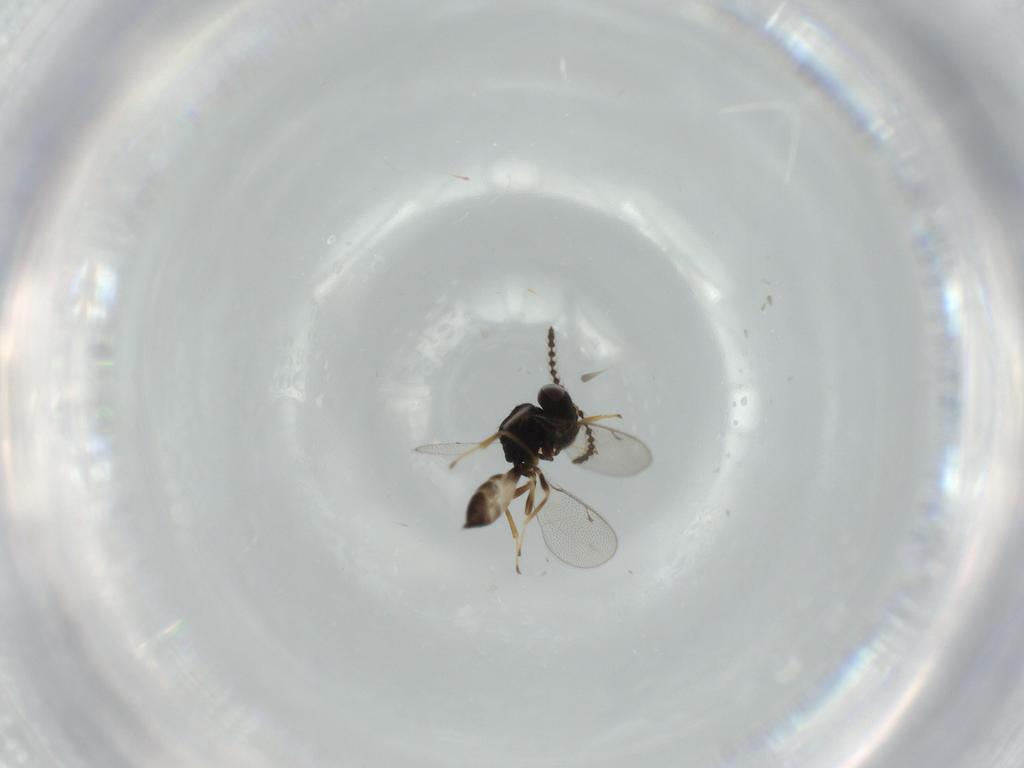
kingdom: Animalia
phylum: Arthropoda
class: Insecta
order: Hymenoptera
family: Pteromalidae
